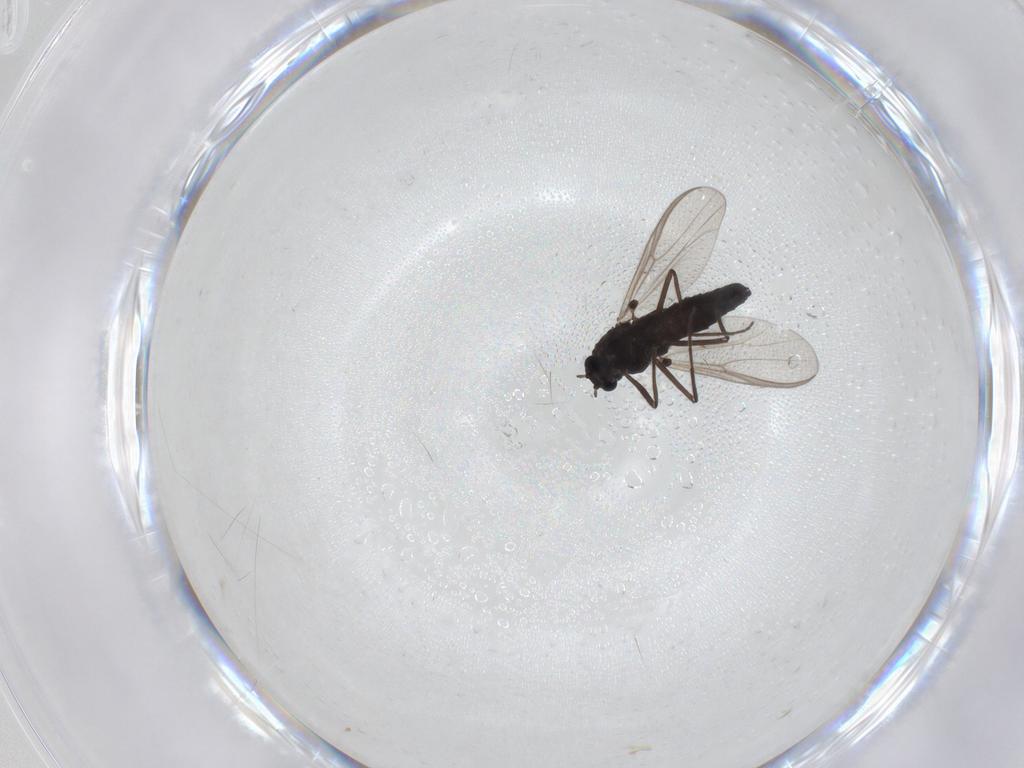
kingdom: Animalia
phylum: Arthropoda
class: Insecta
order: Diptera
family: Chironomidae
